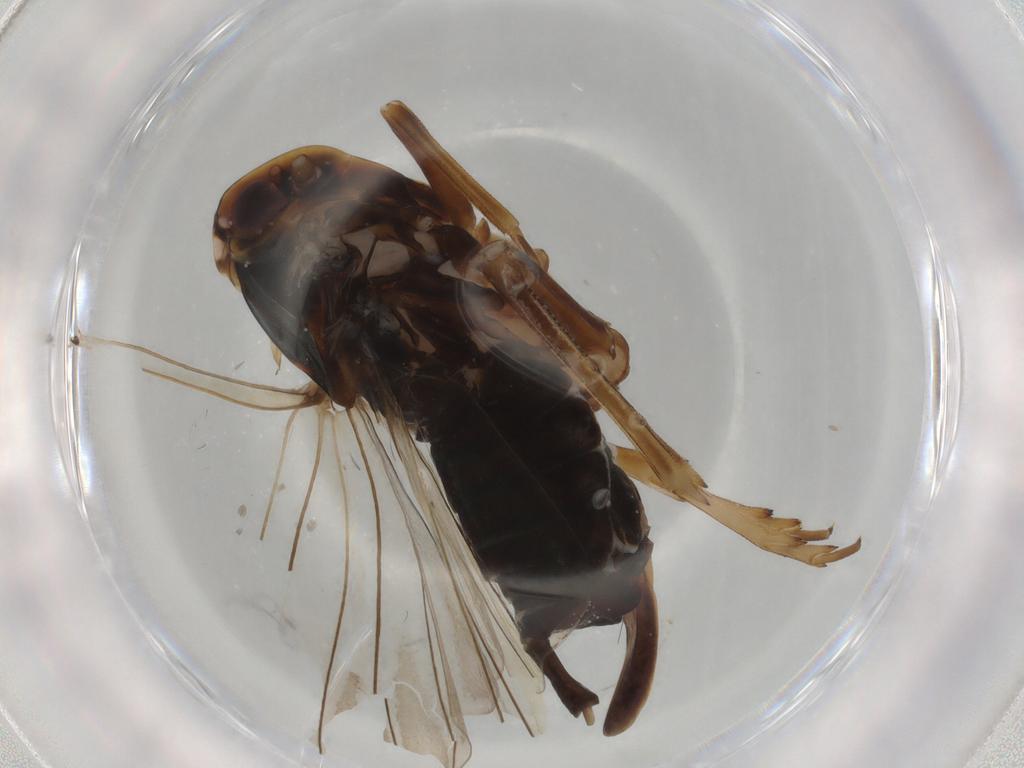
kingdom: Animalia
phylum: Arthropoda
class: Insecta
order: Hemiptera
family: Cixiidae
